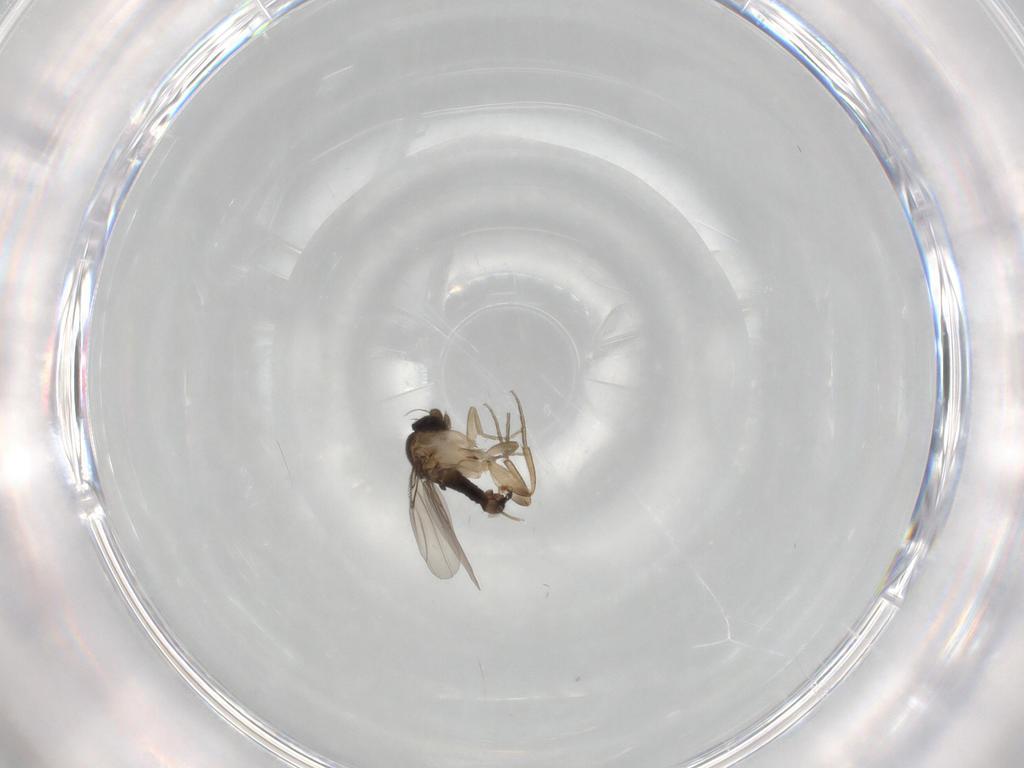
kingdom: Animalia
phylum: Arthropoda
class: Insecta
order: Diptera
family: Phoridae
